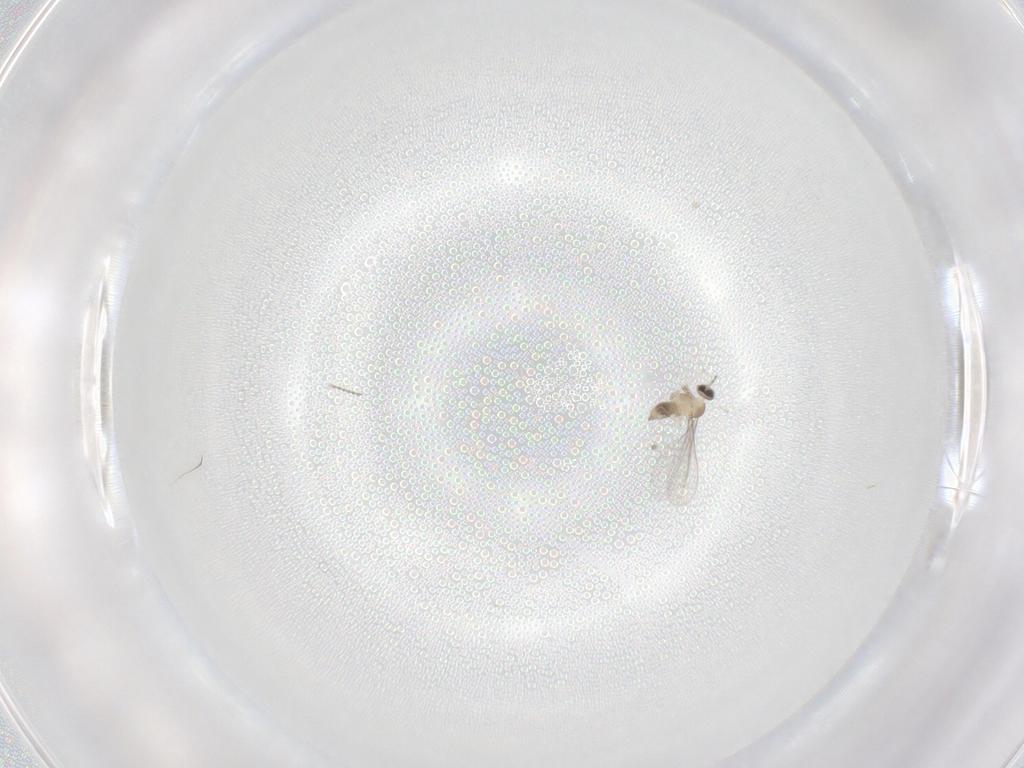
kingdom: Animalia
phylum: Arthropoda
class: Insecta
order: Diptera
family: Cecidomyiidae
